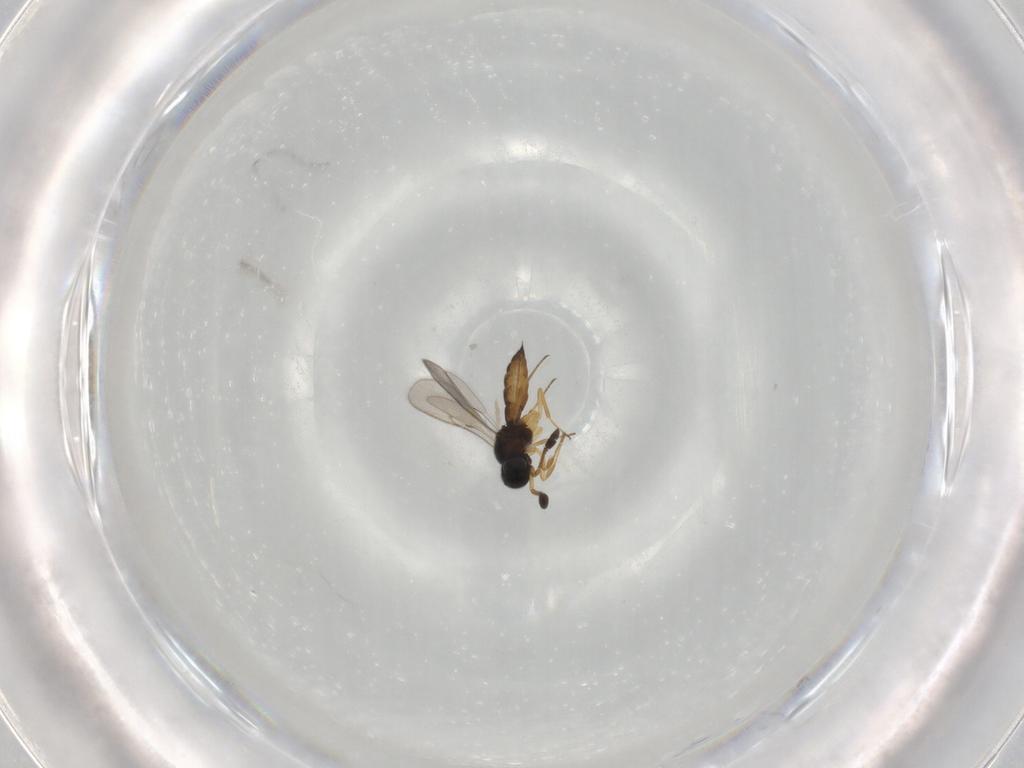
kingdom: Animalia
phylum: Arthropoda
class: Insecta
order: Hymenoptera
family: Scelionidae
